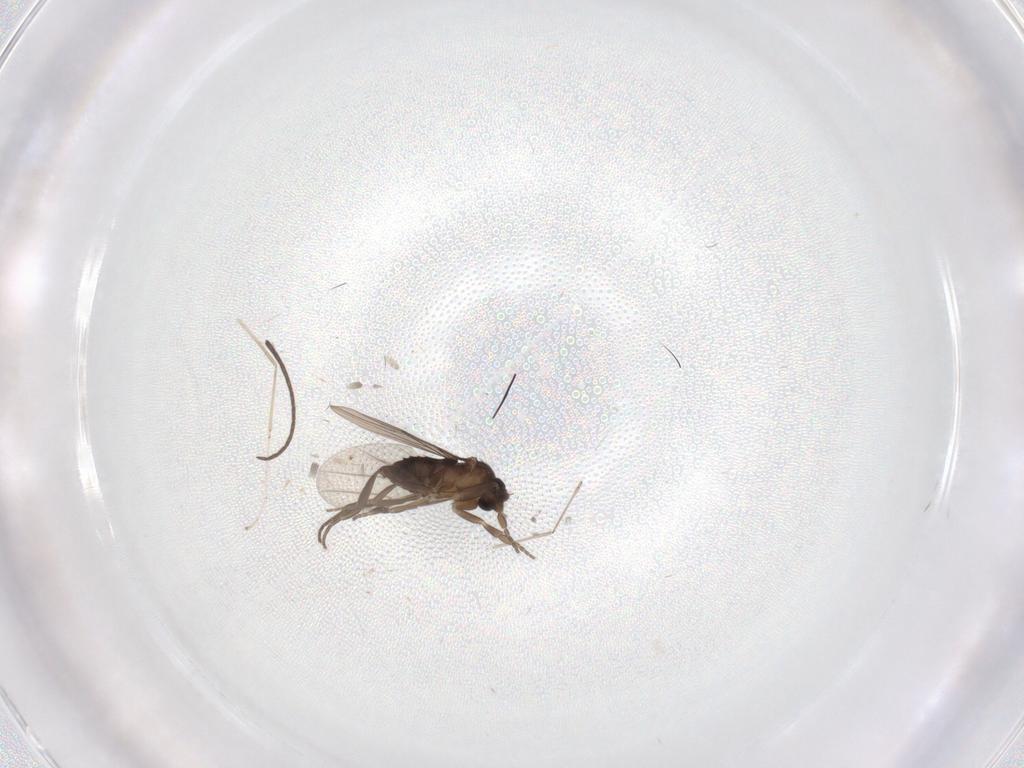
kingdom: Animalia
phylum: Arthropoda
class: Insecta
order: Diptera
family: Phoridae
